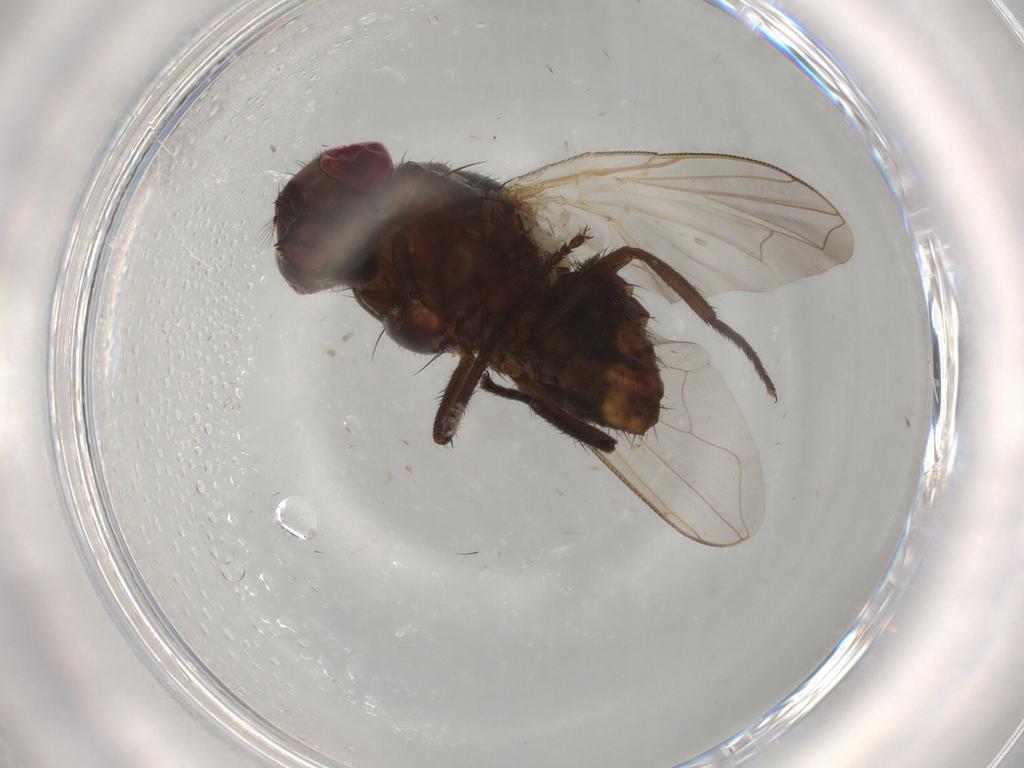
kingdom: Animalia
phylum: Arthropoda
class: Insecta
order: Diptera
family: Muscidae
